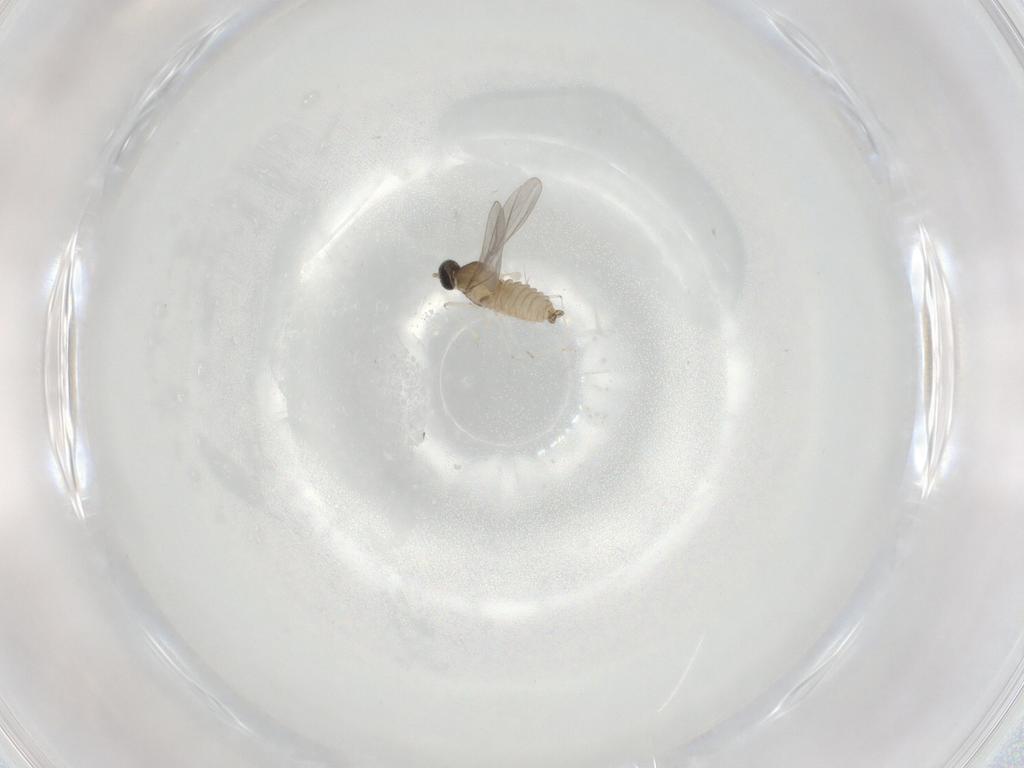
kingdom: Animalia
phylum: Arthropoda
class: Insecta
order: Diptera
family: Cecidomyiidae
